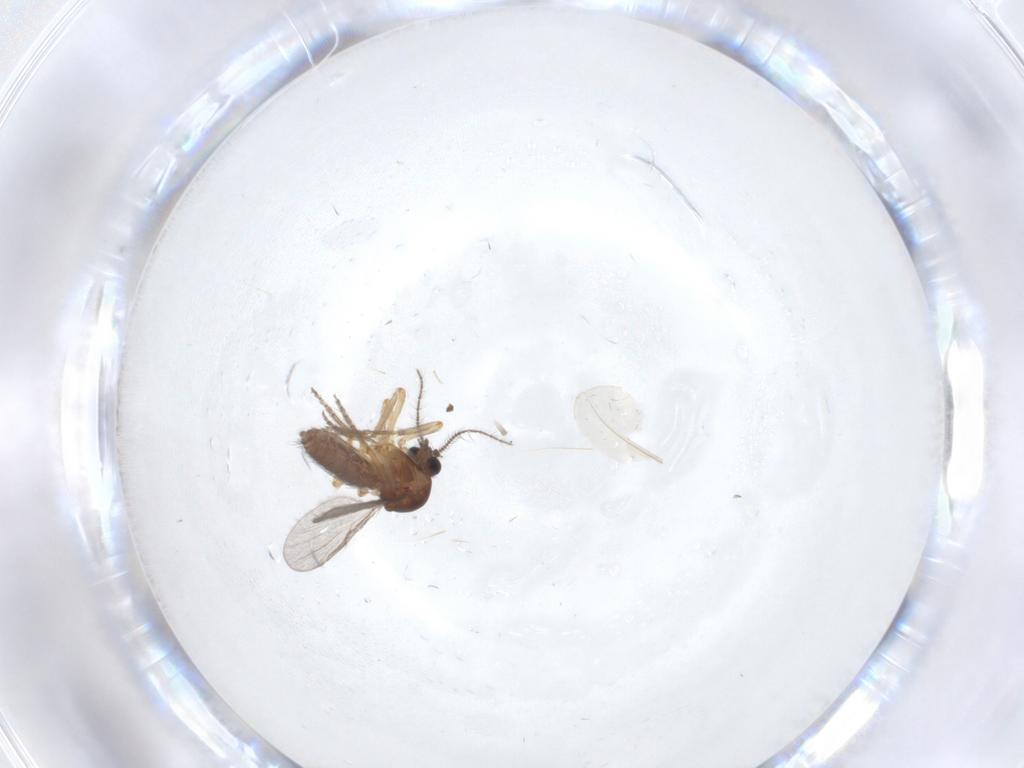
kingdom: Animalia
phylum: Arthropoda
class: Insecta
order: Diptera
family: Ceratopogonidae
